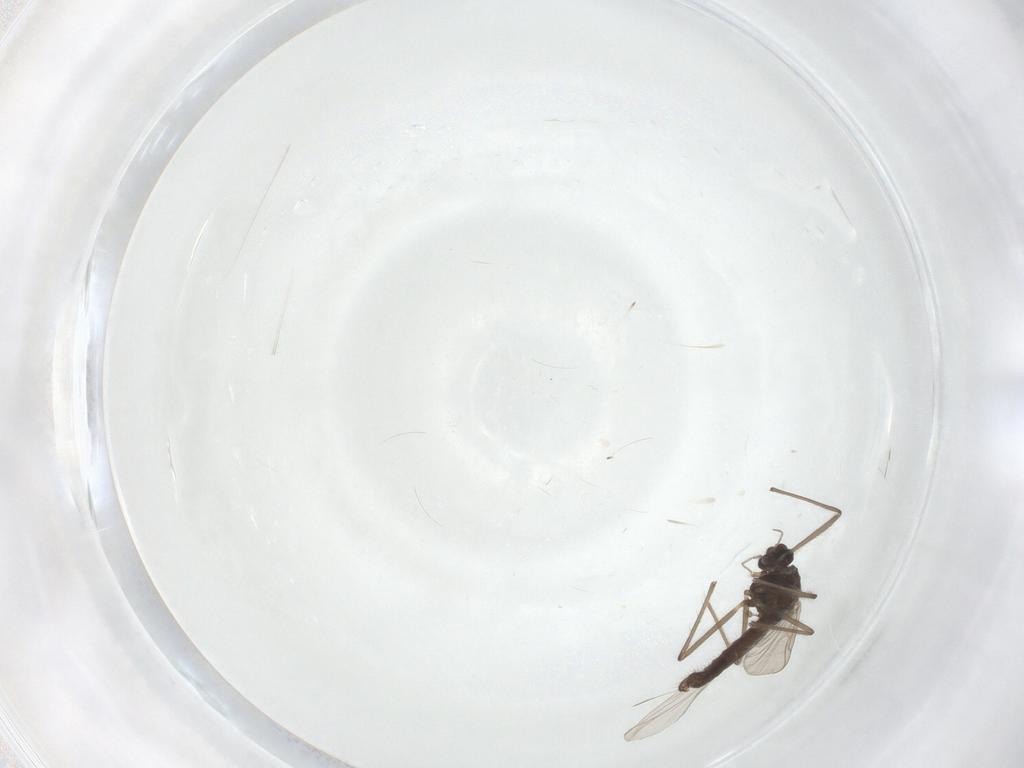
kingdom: Animalia
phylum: Arthropoda
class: Insecta
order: Diptera
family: Chironomidae
